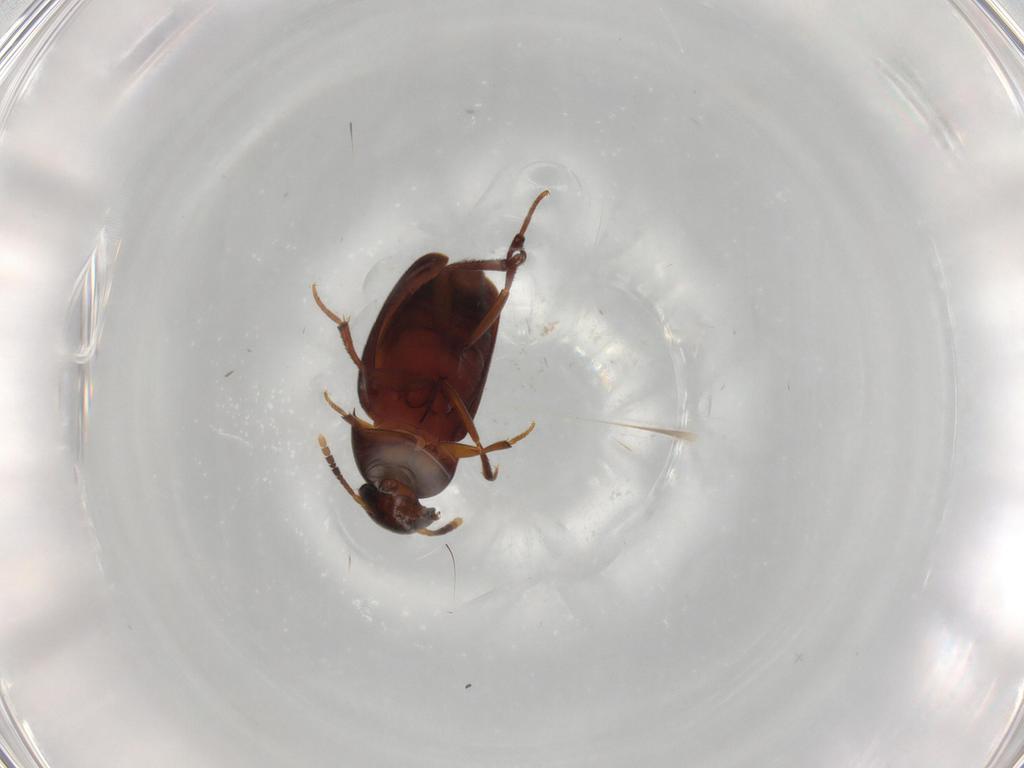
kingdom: Animalia
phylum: Arthropoda
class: Insecta
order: Coleoptera
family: Leiodidae
